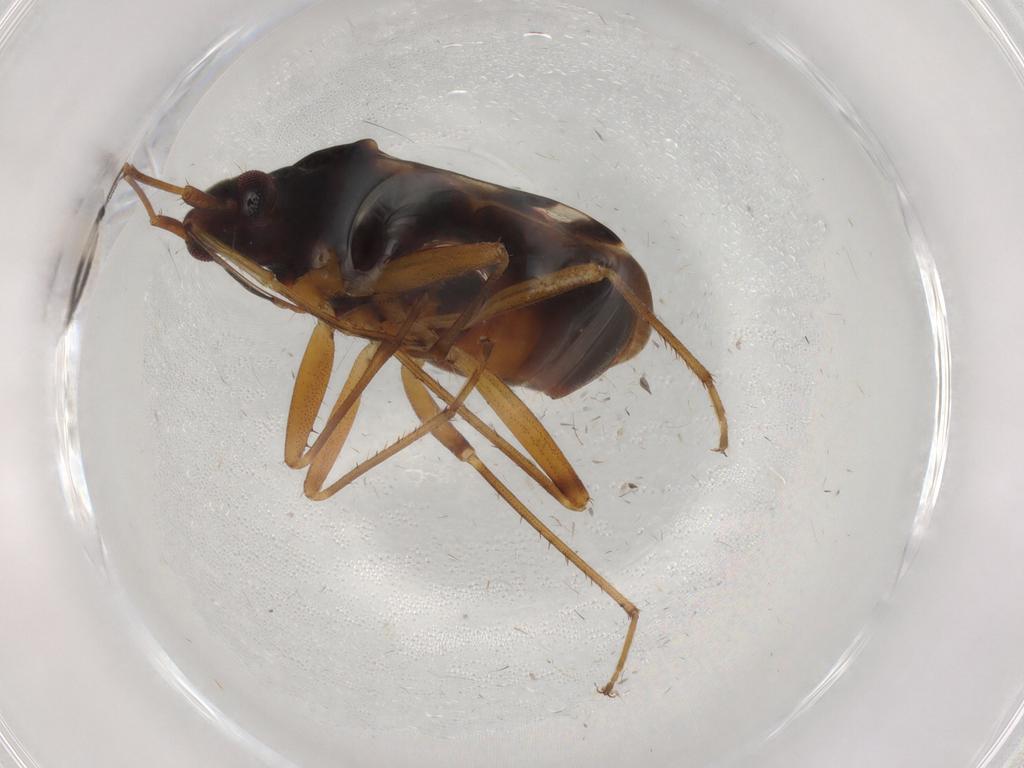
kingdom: Animalia
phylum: Arthropoda
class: Insecta
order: Hemiptera
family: Rhyparochromidae
